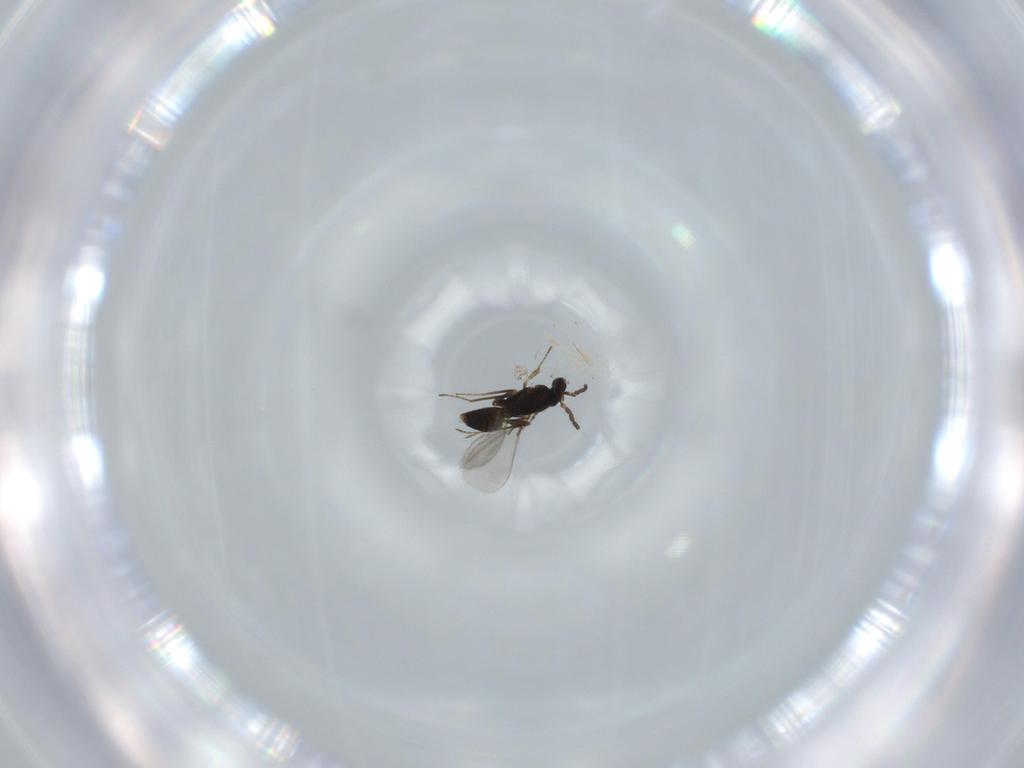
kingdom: Animalia
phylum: Arthropoda
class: Insecta
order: Diptera
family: Cecidomyiidae
